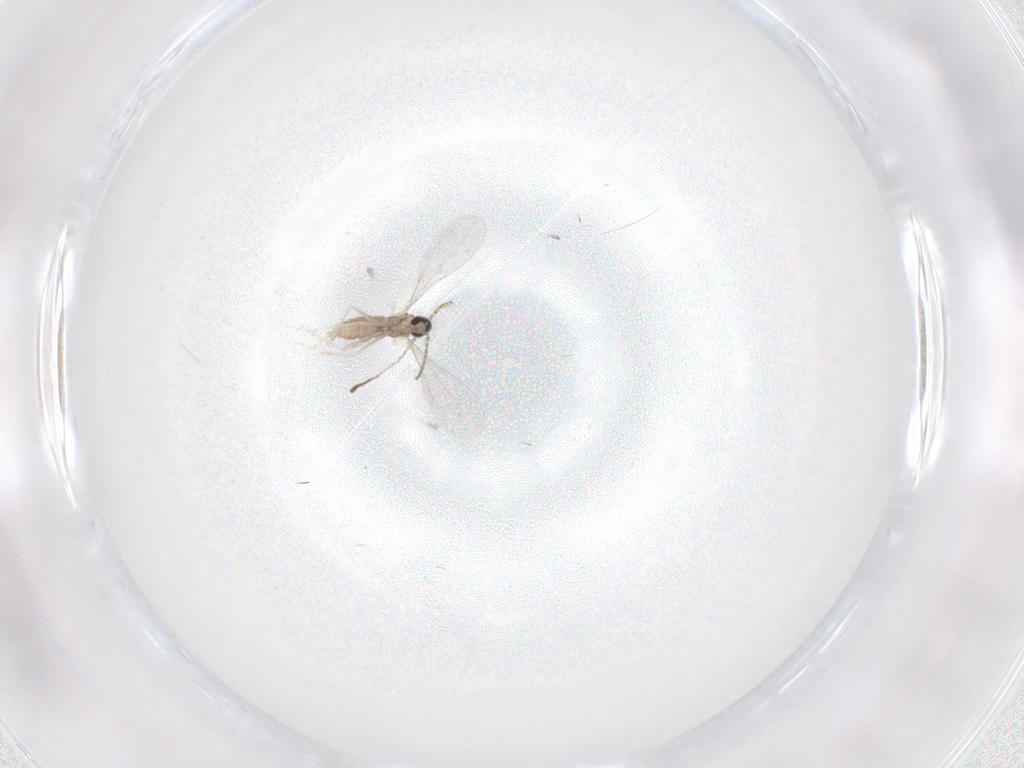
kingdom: Animalia
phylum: Arthropoda
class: Insecta
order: Diptera
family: Cecidomyiidae
